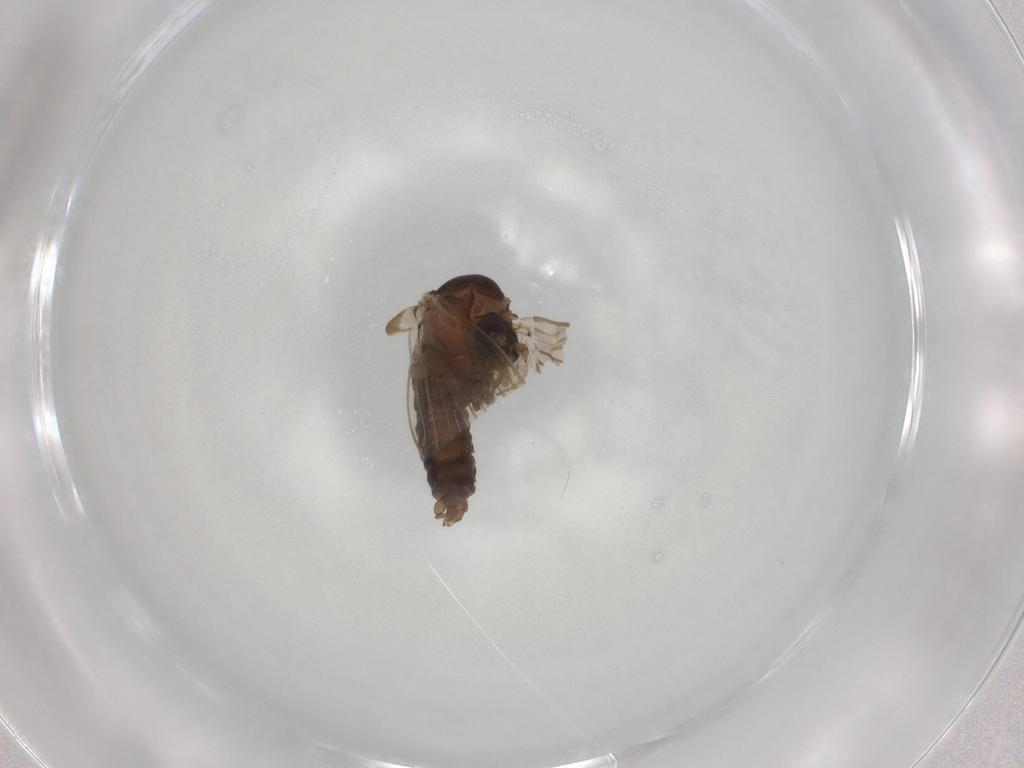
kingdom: Animalia
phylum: Arthropoda
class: Insecta
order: Diptera
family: Psychodidae
